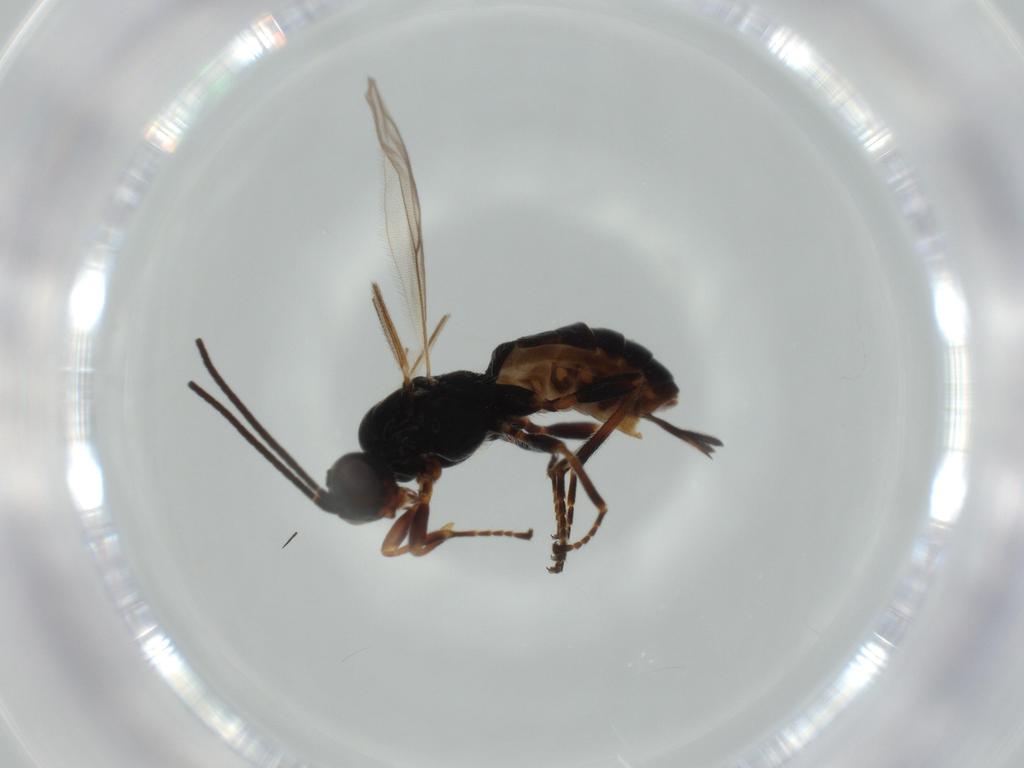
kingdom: Animalia
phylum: Arthropoda
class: Insecta
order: Hymenoptera
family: Braconidae
